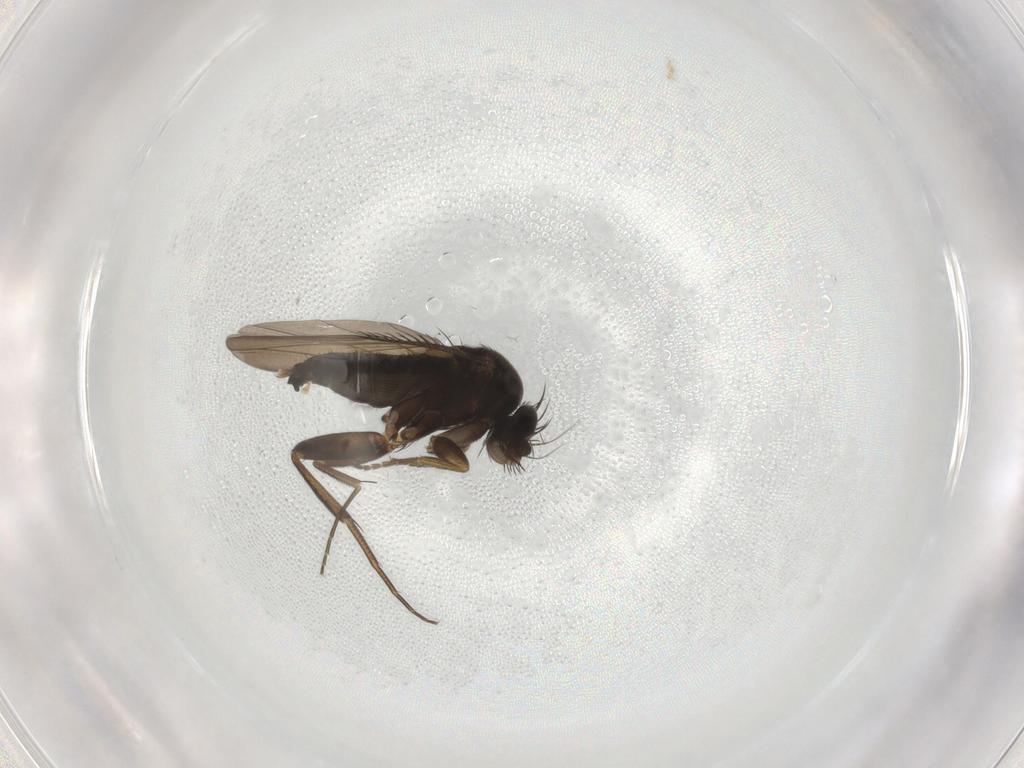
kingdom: Animalia
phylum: Arthropoda
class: Insecta
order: Diptera
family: Phoridae
